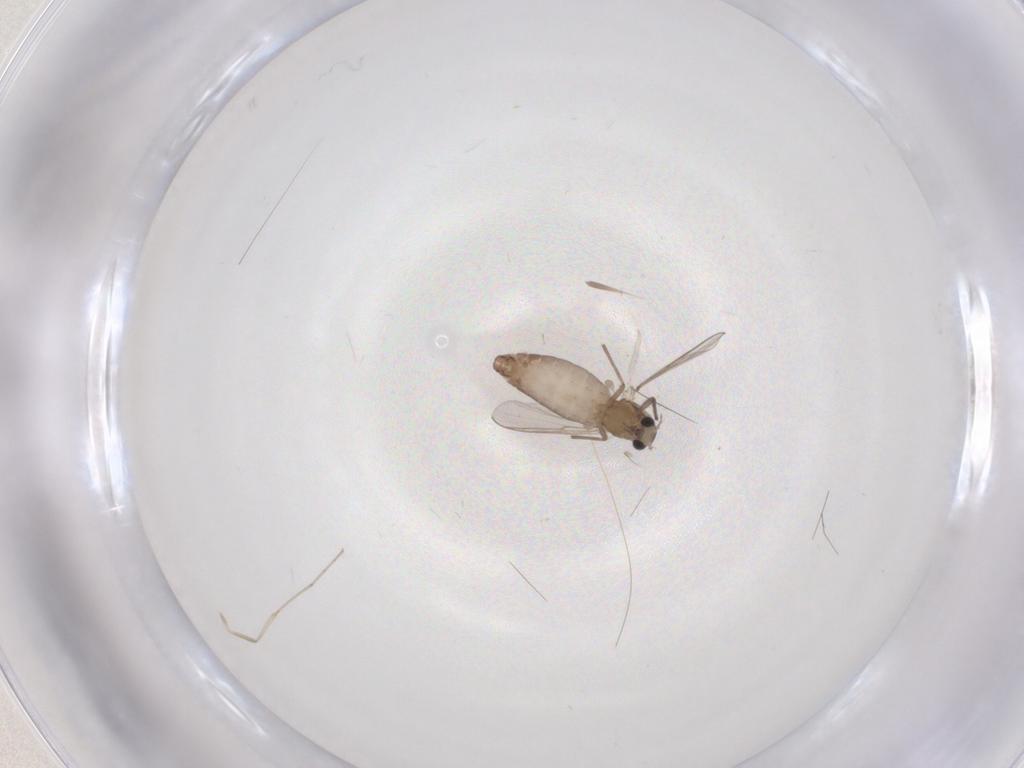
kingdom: Animalia
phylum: Arthropoda
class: Insecta
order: Diptera
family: Chironomidae
